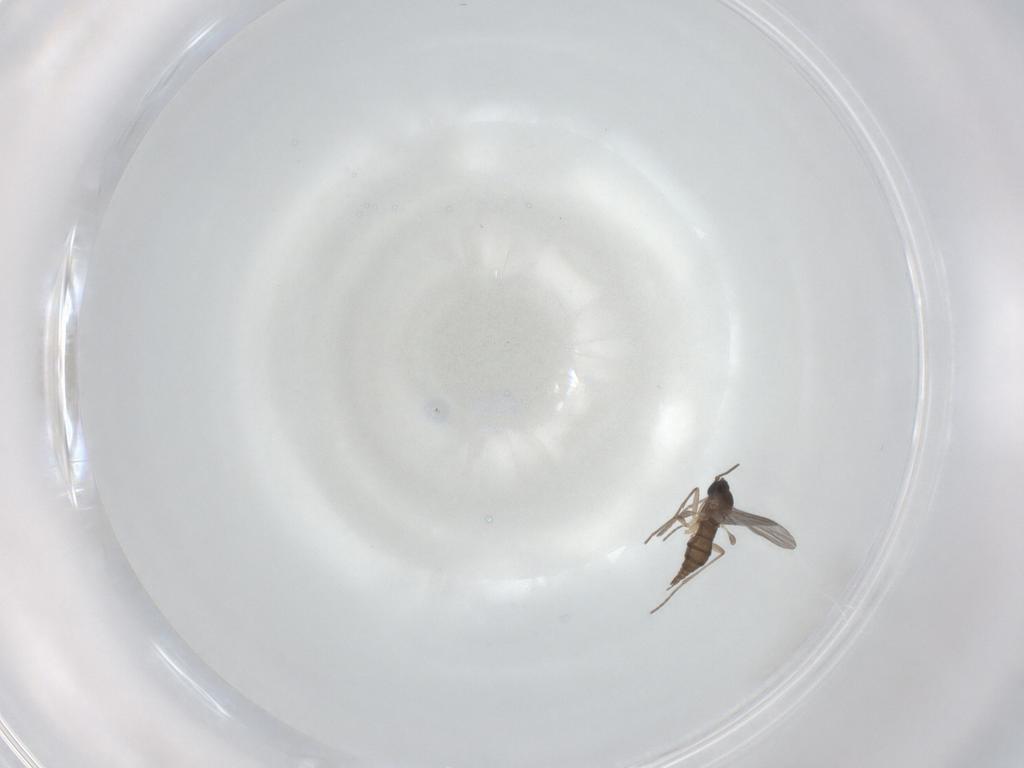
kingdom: Animalia
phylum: Arthropoda
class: Insecta
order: Diptera
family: Sciaridae
